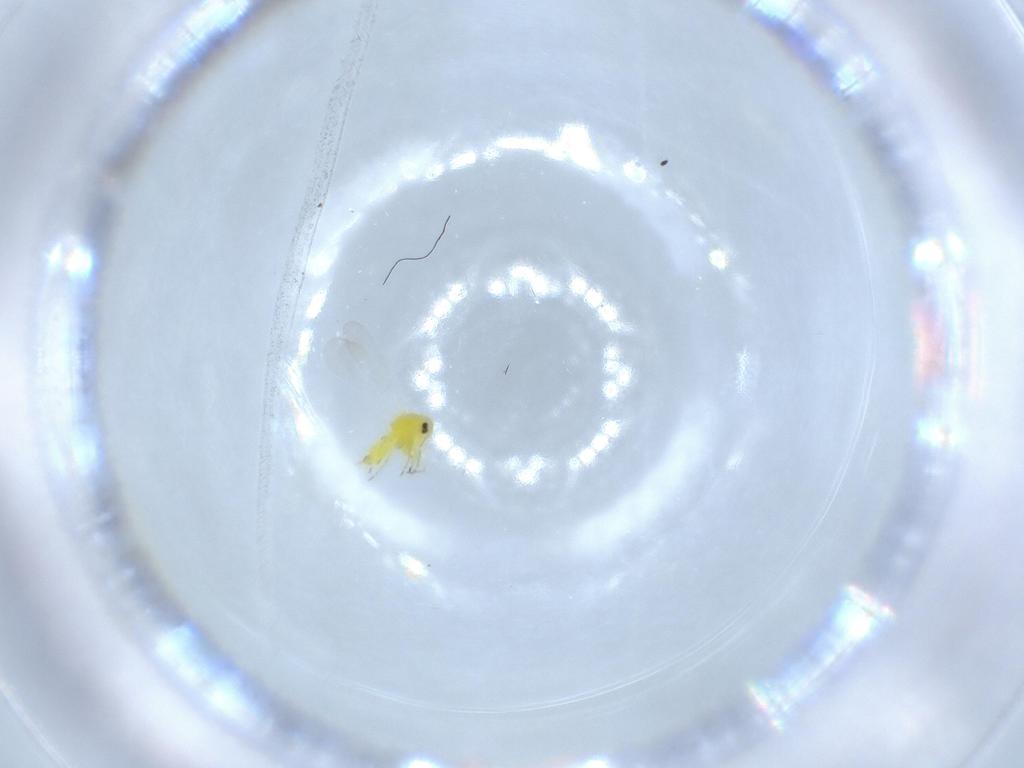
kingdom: Animalia
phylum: Arthropoda
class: Insecta
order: Hemiptera
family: Aleyrodidae
